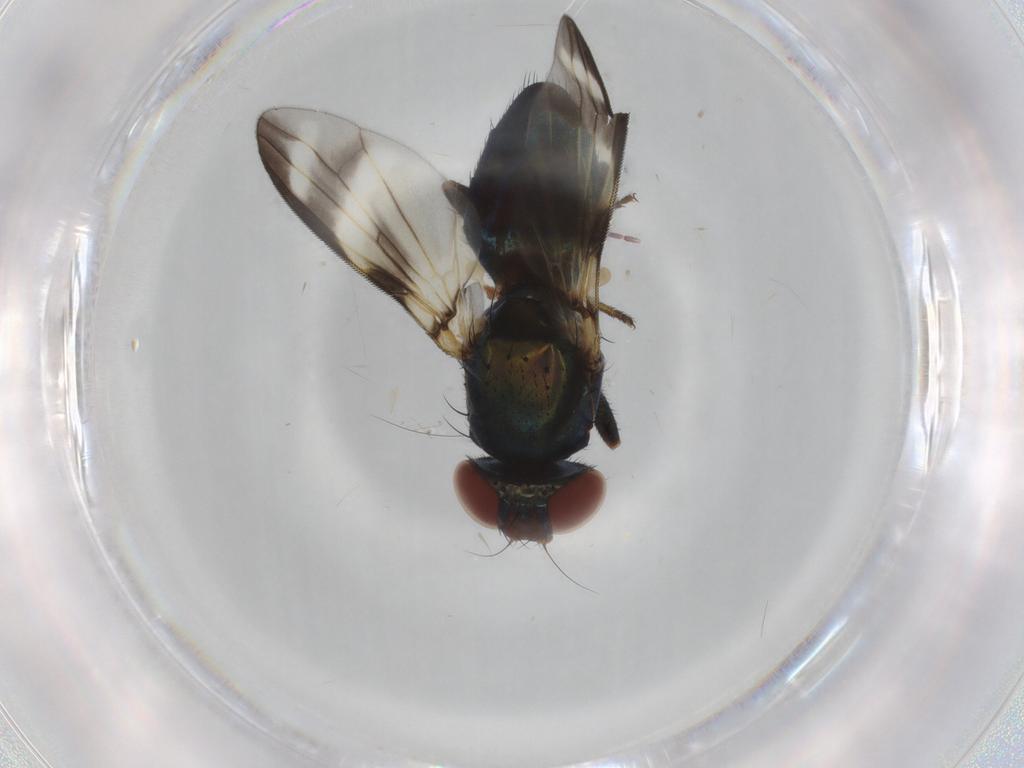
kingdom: Animalia
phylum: Arthropoda
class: Insecta
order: Diptera
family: Ulidiidae
